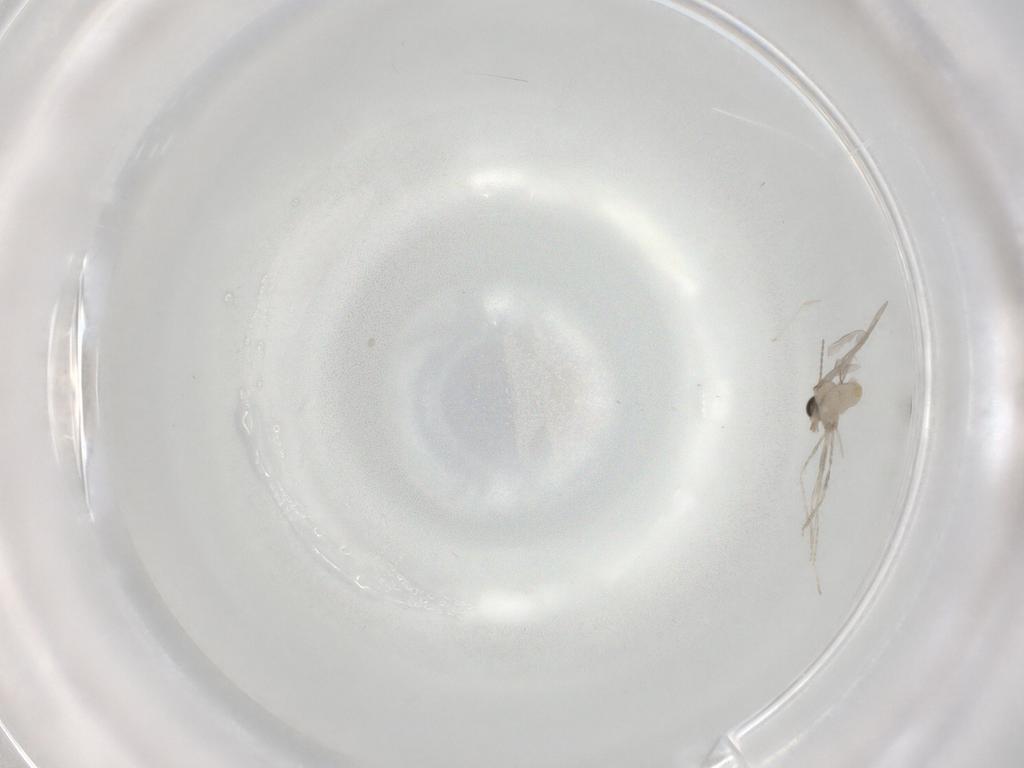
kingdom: Animalia
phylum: Arthropoda
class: Insecta
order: Diptera
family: Cecidomyiidae
